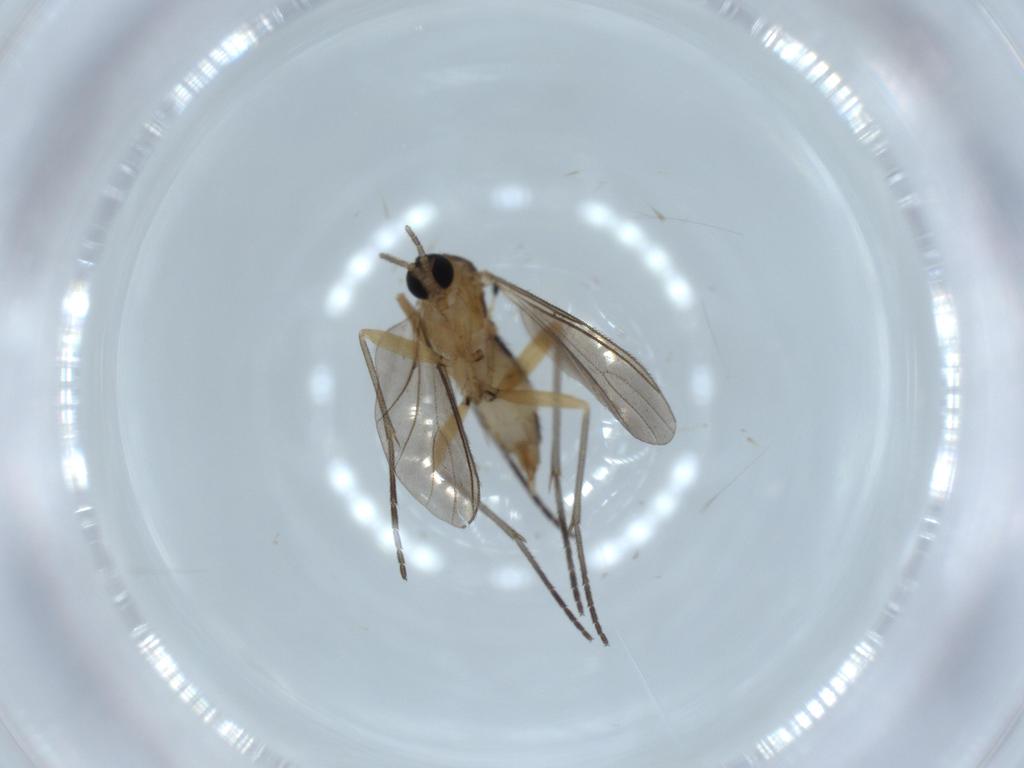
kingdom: Animalia
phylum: Arthropoda
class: Insecta
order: Diptera
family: Sciaridae
